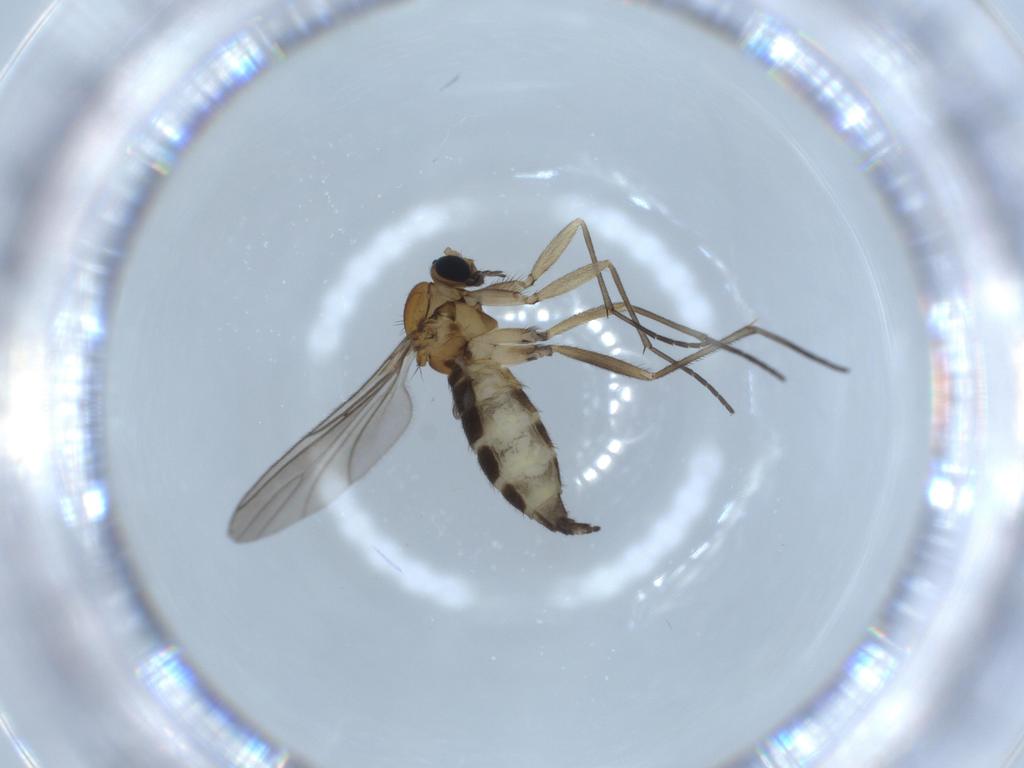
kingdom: Animalia
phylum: Arthropoda
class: Insecta
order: Diptera
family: Sciaridae
